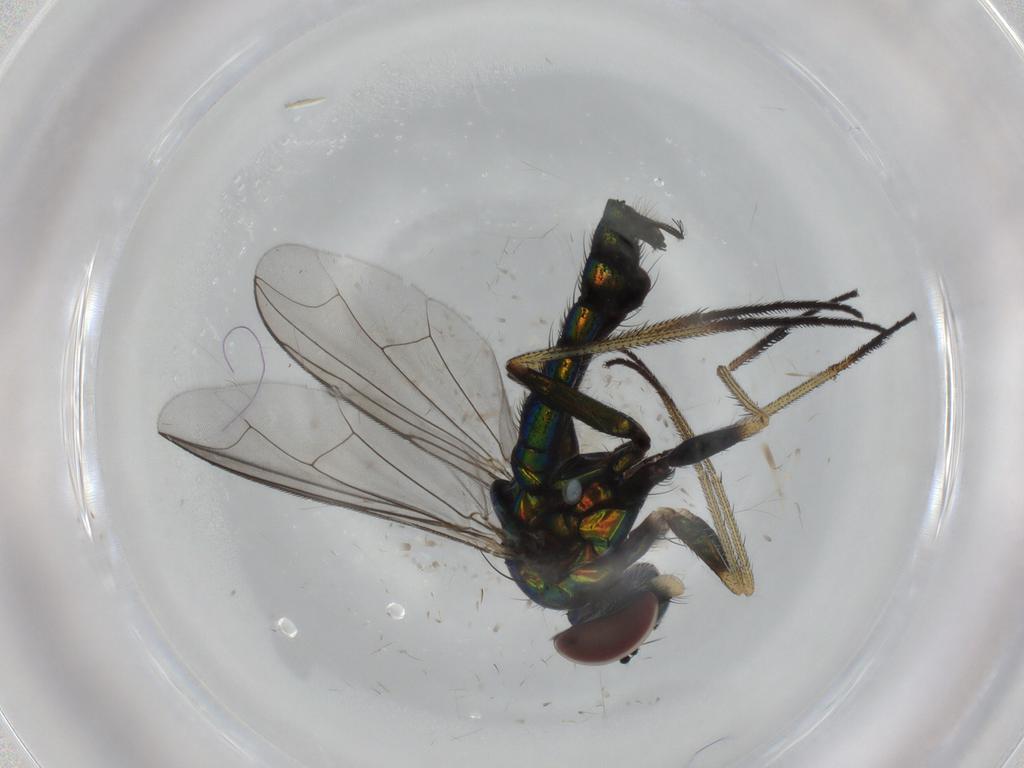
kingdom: Animalia
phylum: Arthropoda
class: Insecta
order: Diptera
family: Dolichopodidae
